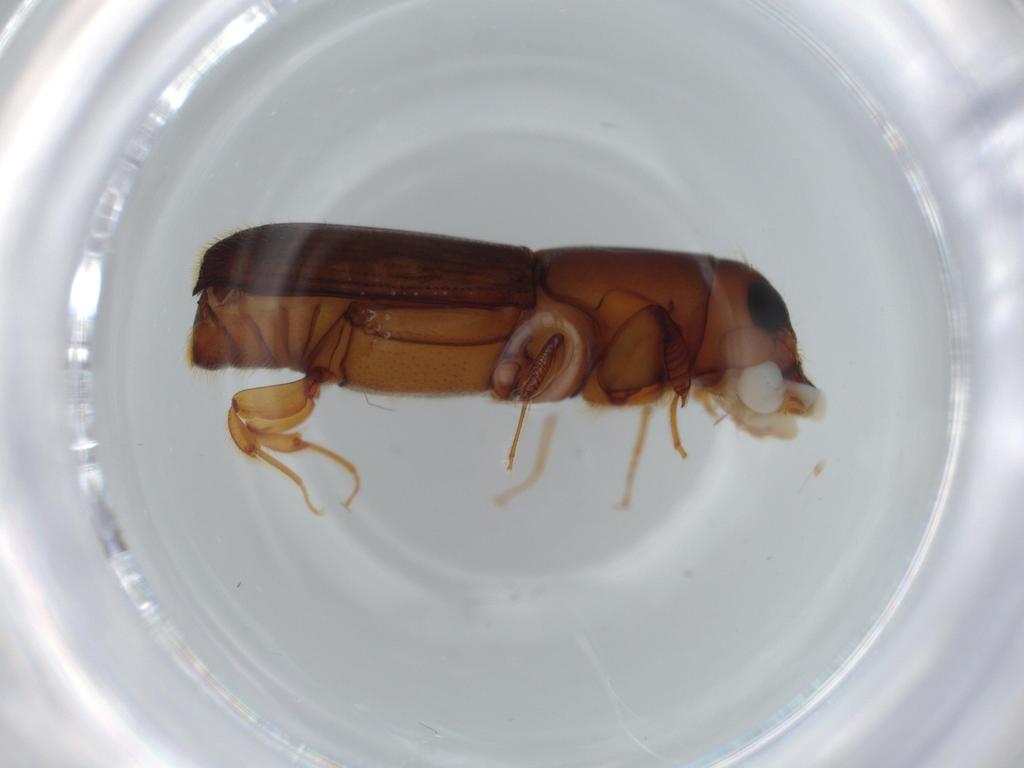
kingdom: Animalia
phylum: Arthropoda
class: Insecta
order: Coleoptera
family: Curculionidae
